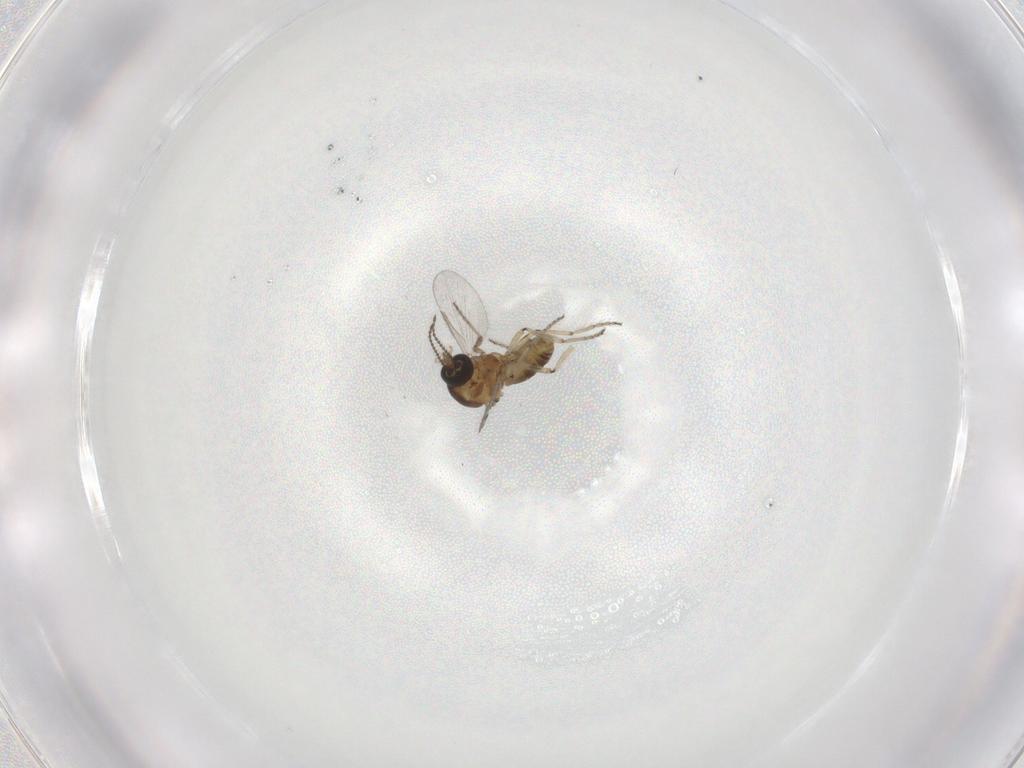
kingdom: Animalia
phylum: Arthropoda
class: Insecta
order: Diptera
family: Ceratopogonidae
